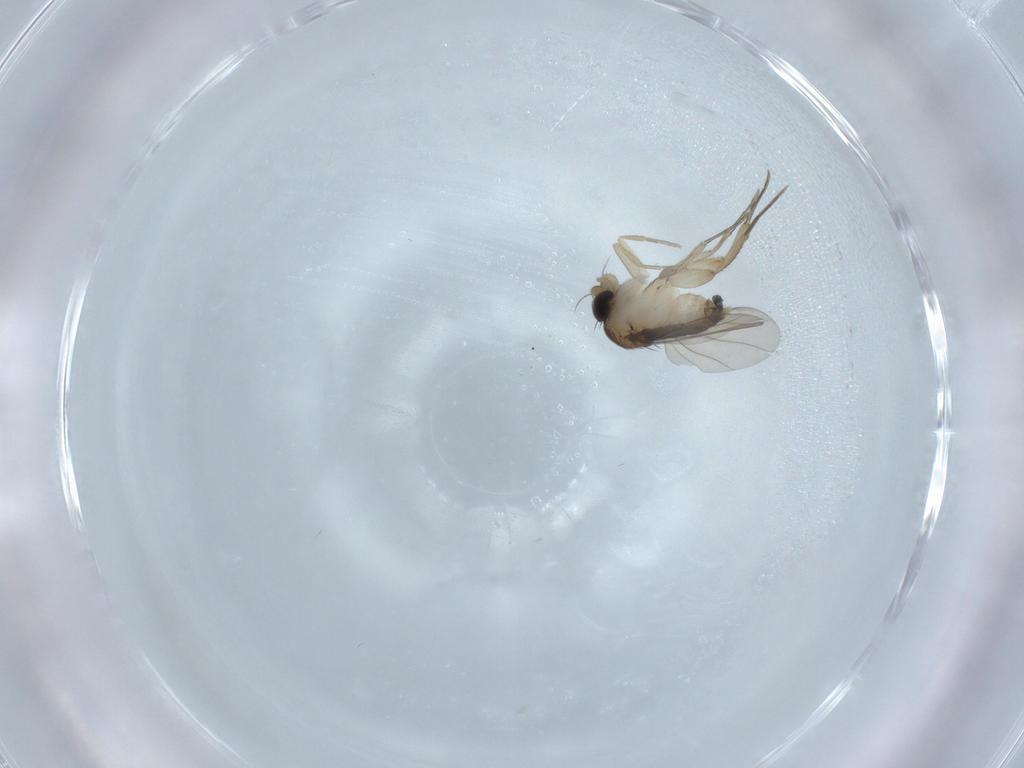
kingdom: Animalia
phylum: Arthropoda
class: Insecta
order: Diptera
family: Phoridae
